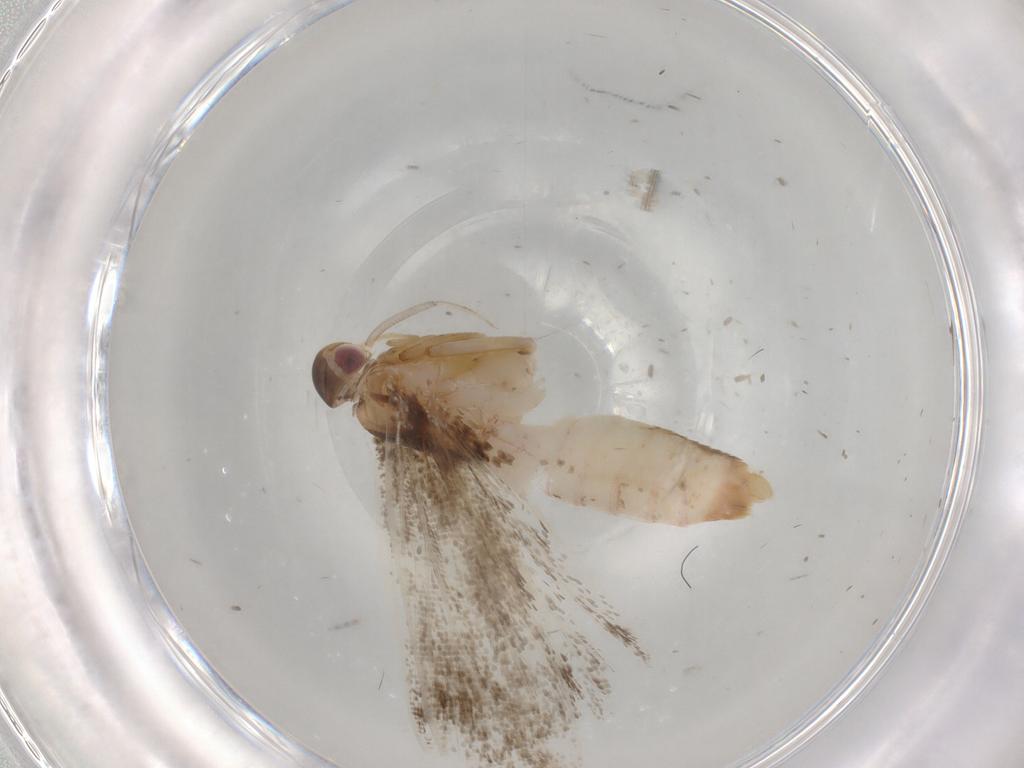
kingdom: Animalia
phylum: Arthropoda
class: Insecta
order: Lepidoptera
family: Gelechiidae
